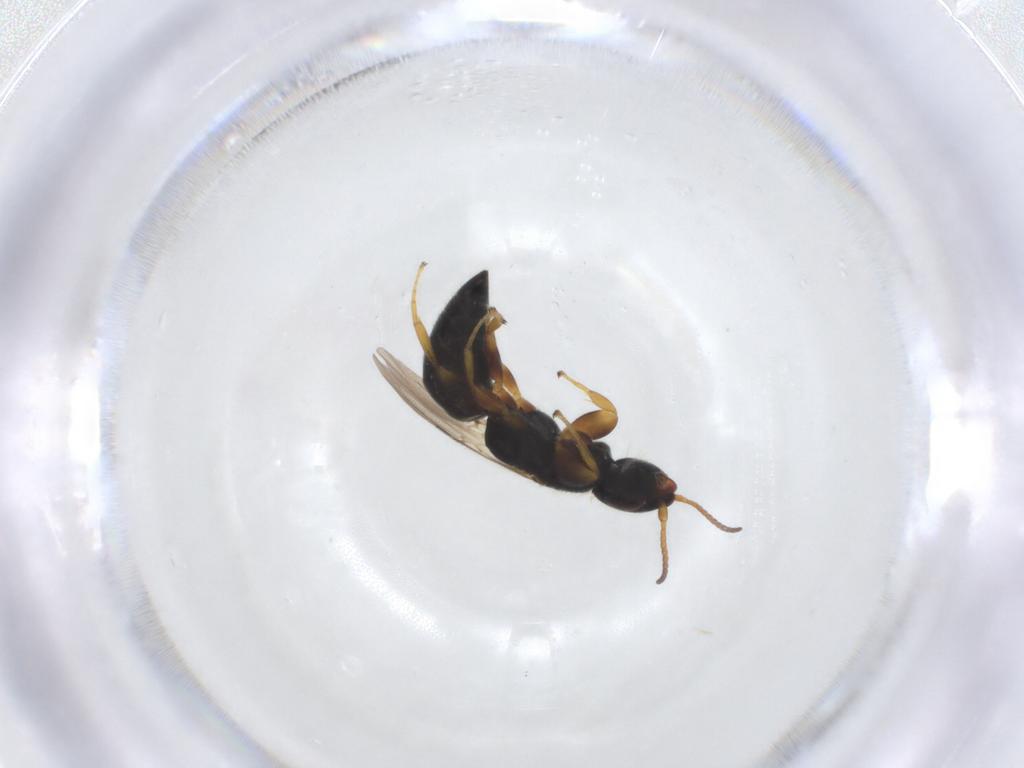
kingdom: Animalia
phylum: Arthropoda
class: Insecta
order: Hymenoptera
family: Bethylidae
